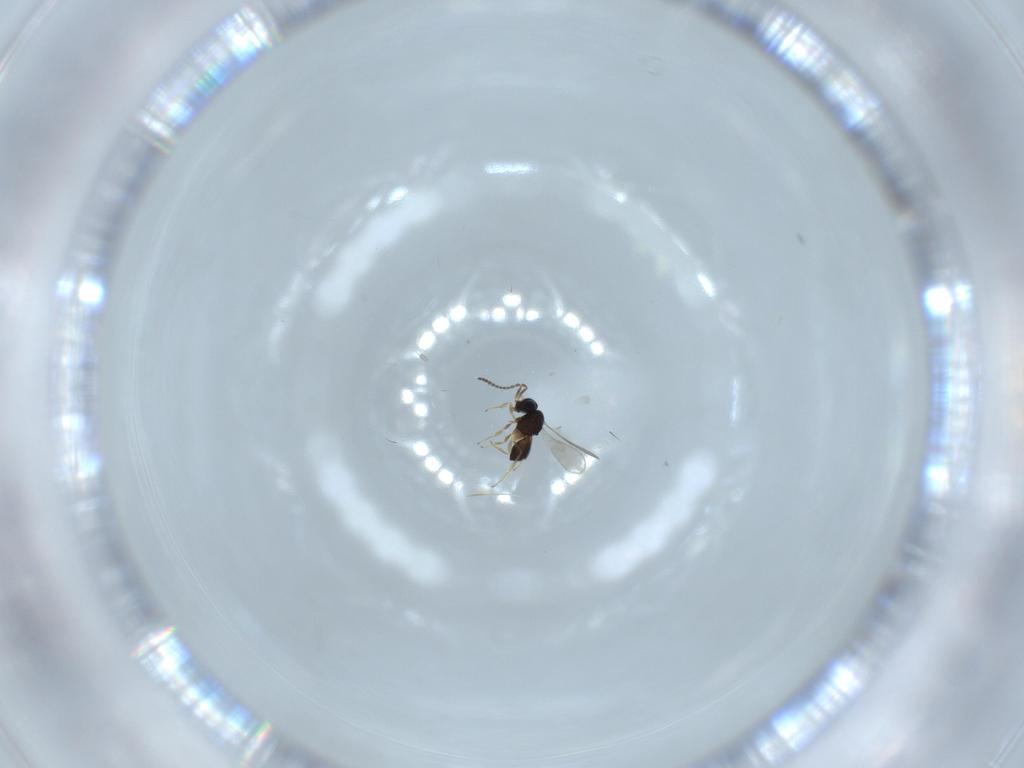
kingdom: Animalia
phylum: Arthropoda
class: Insecta
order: Hymenoptera
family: Scelionidae
